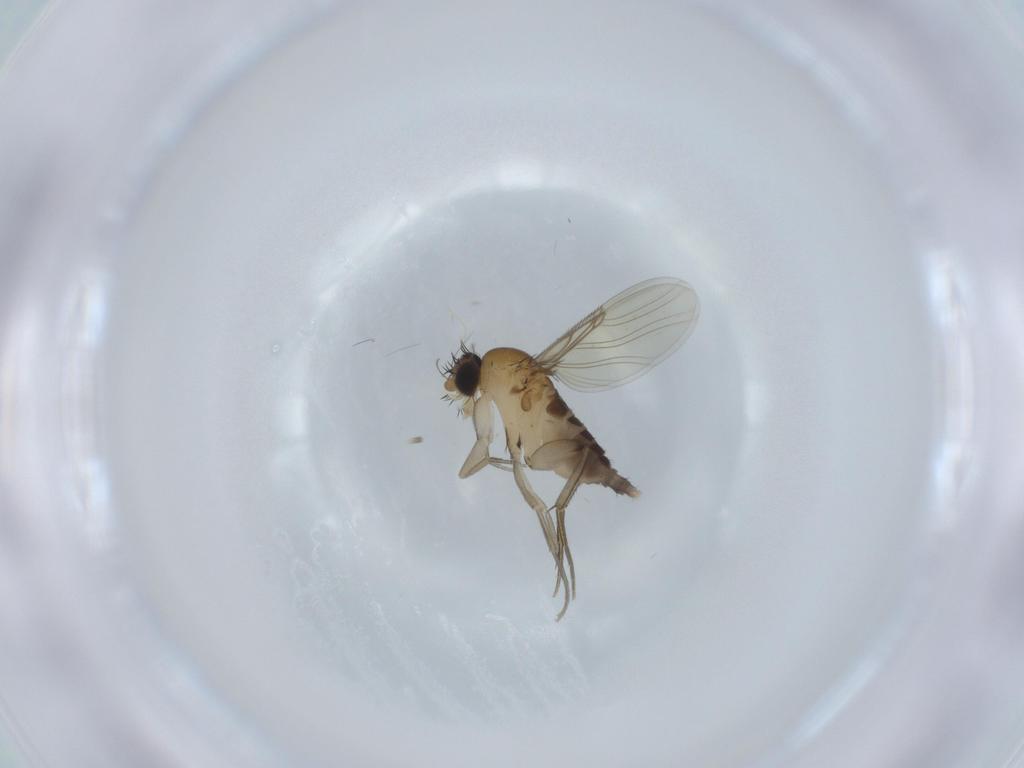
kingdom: Animalia
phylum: Arthropoda
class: Insecta
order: Diptera
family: Phoridae
